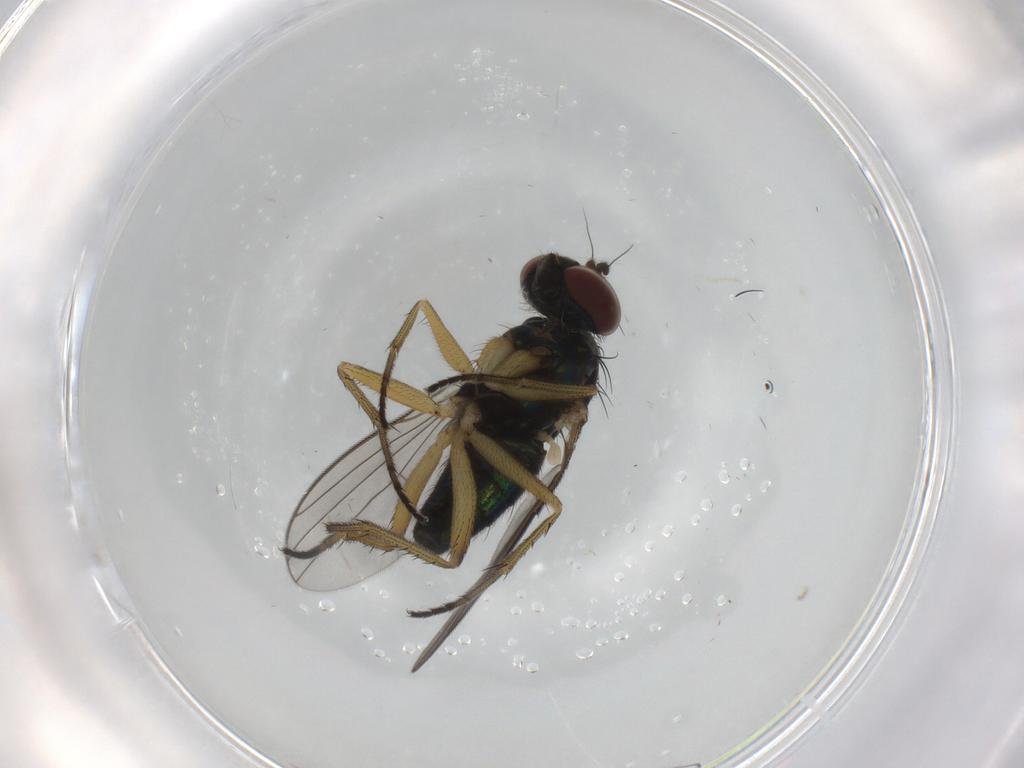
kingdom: Animalia
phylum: Arthropoda
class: Insecta
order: Diptera
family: Dolichopodidae
